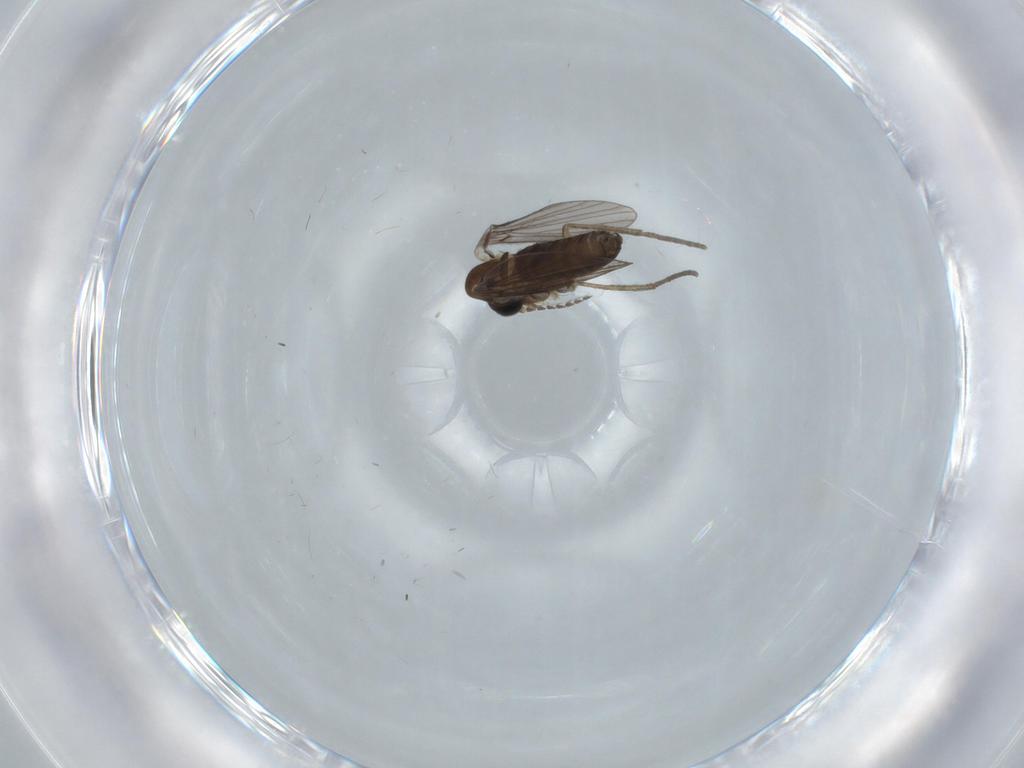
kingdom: Animalia
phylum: Arthropoda
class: Insecta
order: Diptera
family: Psychodidae
